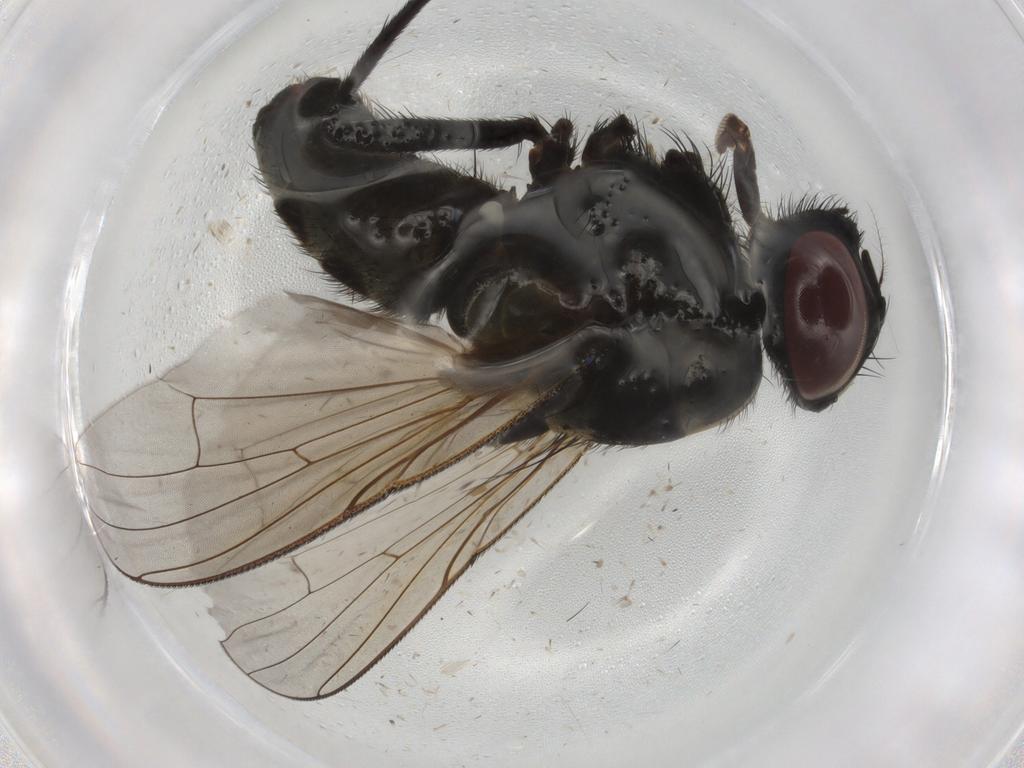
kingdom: Animalia
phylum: Arthropoda
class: Insecta
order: Diptera
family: Muscidae
